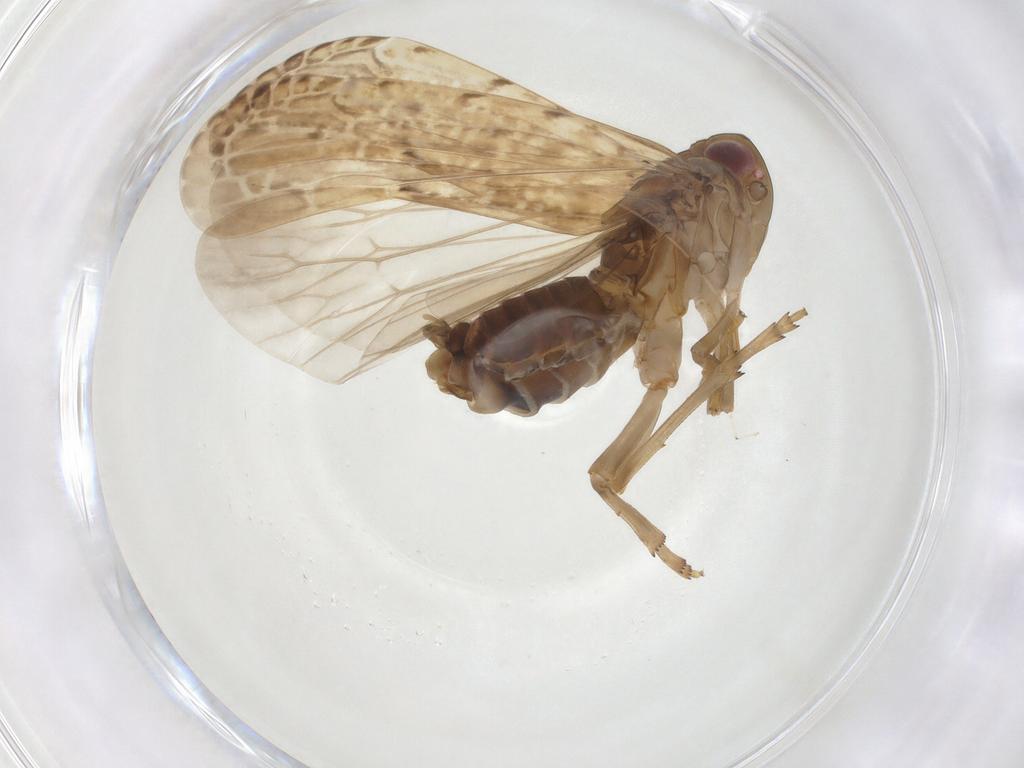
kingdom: Animalia
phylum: Arthropoda
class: Insecta
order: Hemiptera
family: Cicadellidae
